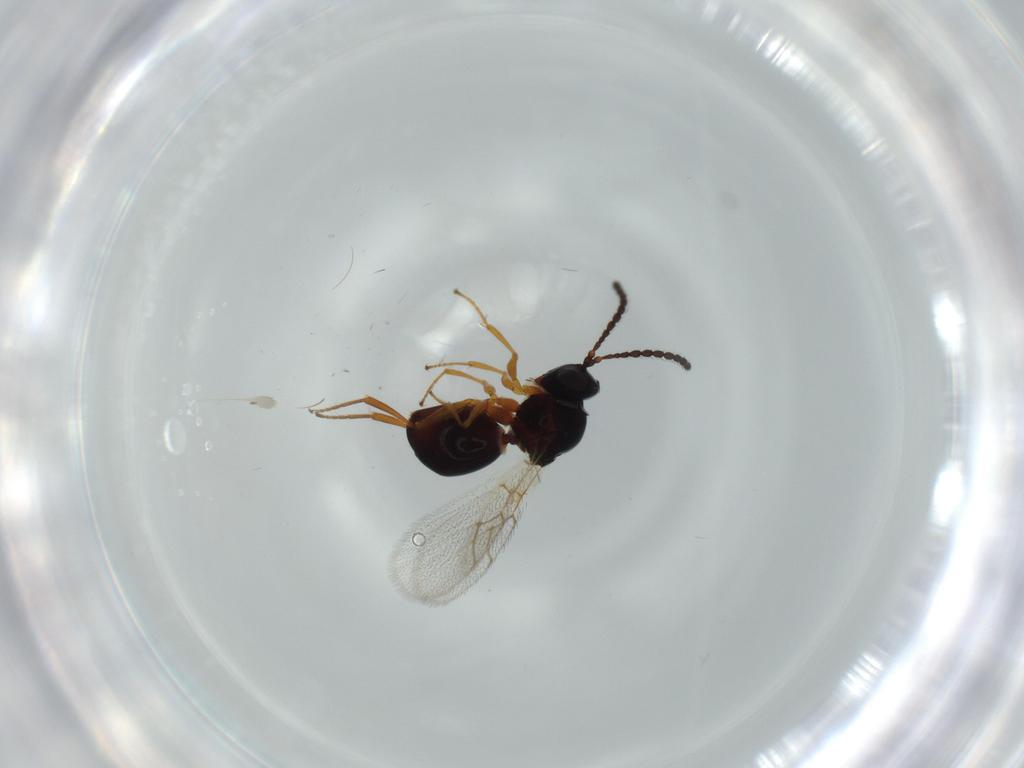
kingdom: Animalia
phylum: Arthropoda
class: Insecta
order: Hymenoptera
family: Figitidae
